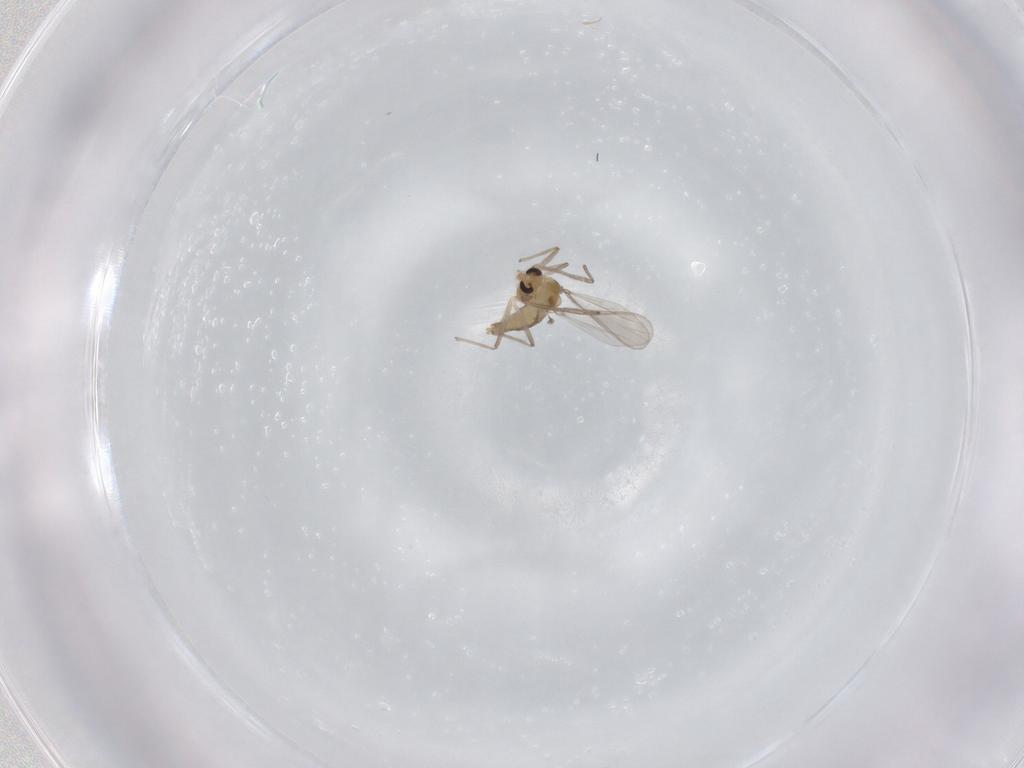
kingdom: Animalia
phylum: Arthropoda
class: Insecta
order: Diptera
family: Chironomidae
